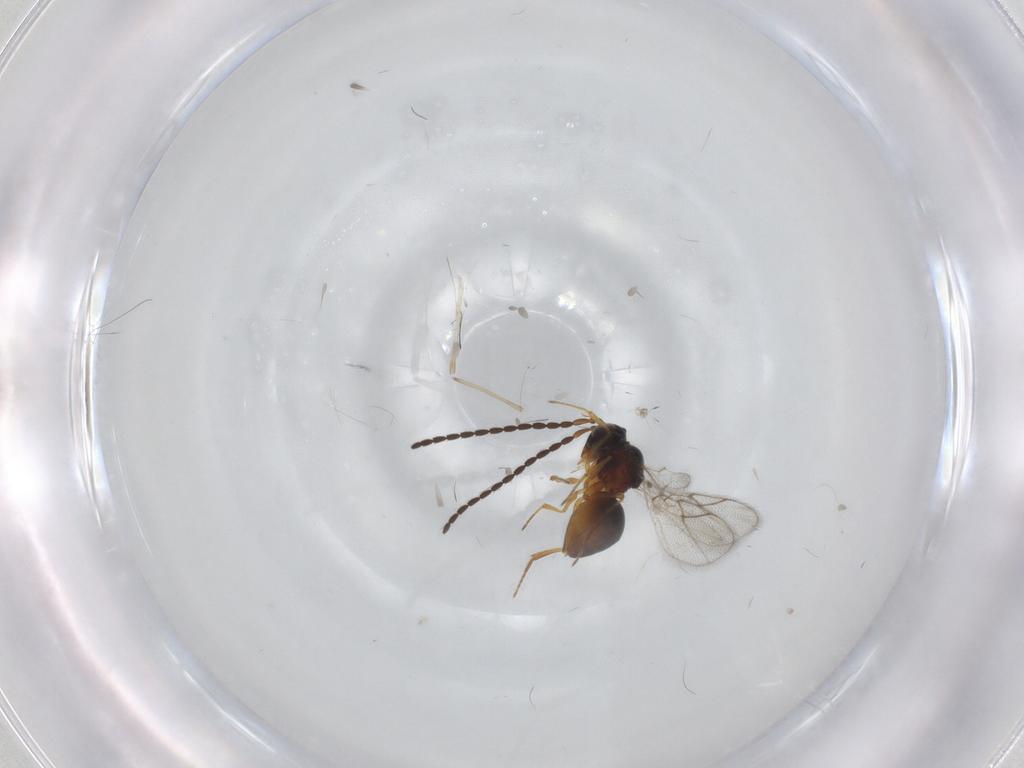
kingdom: Animalia
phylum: Arthropoda
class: Insecta
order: Hymenoptera
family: Figitidae
